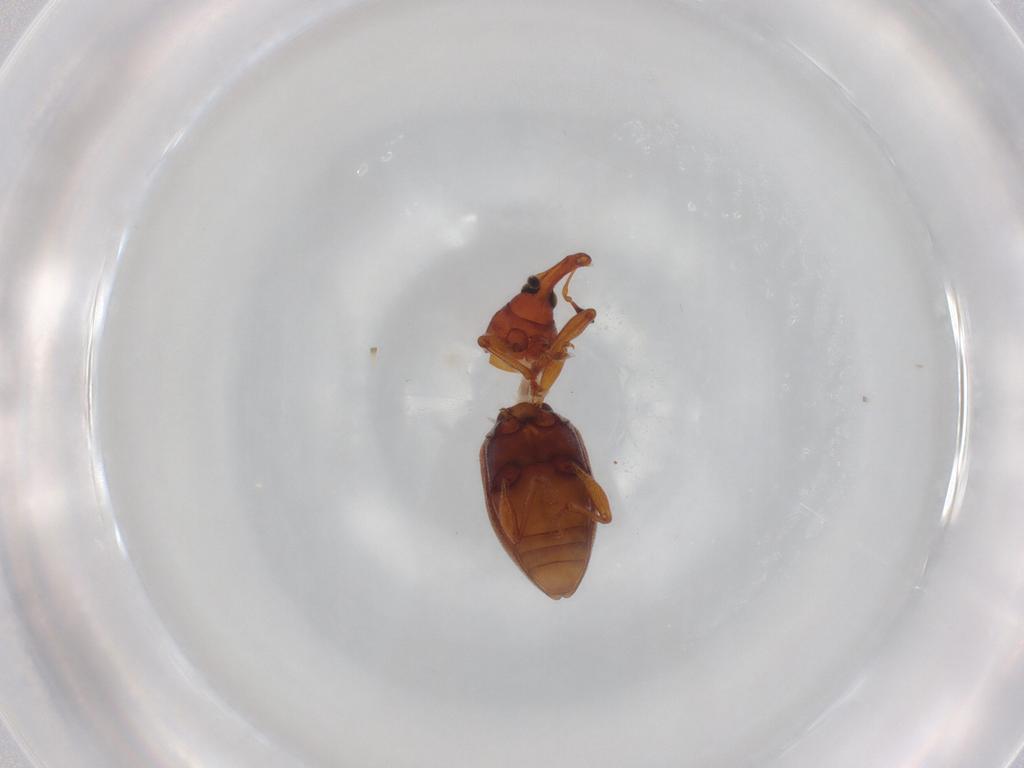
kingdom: Animalia
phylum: Arthropoda
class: Insecta
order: Coleoptera
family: Curculionidae
